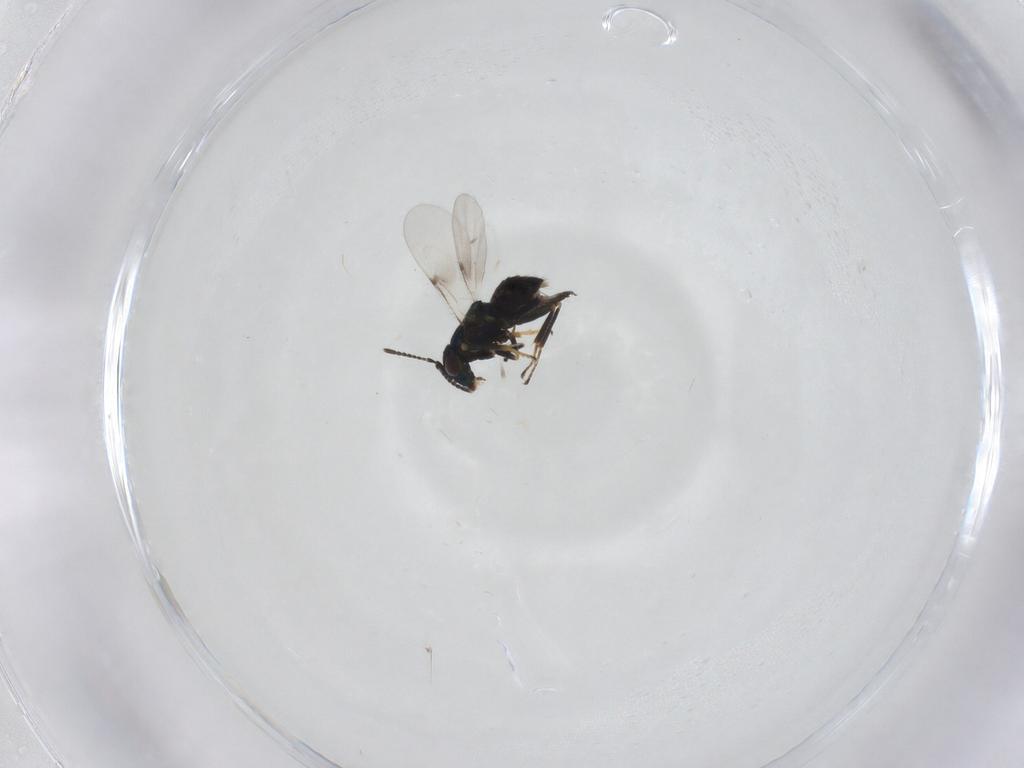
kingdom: Animalia
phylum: Arthropoda
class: Insecta
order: Hymenoptera
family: Encyrtidae
